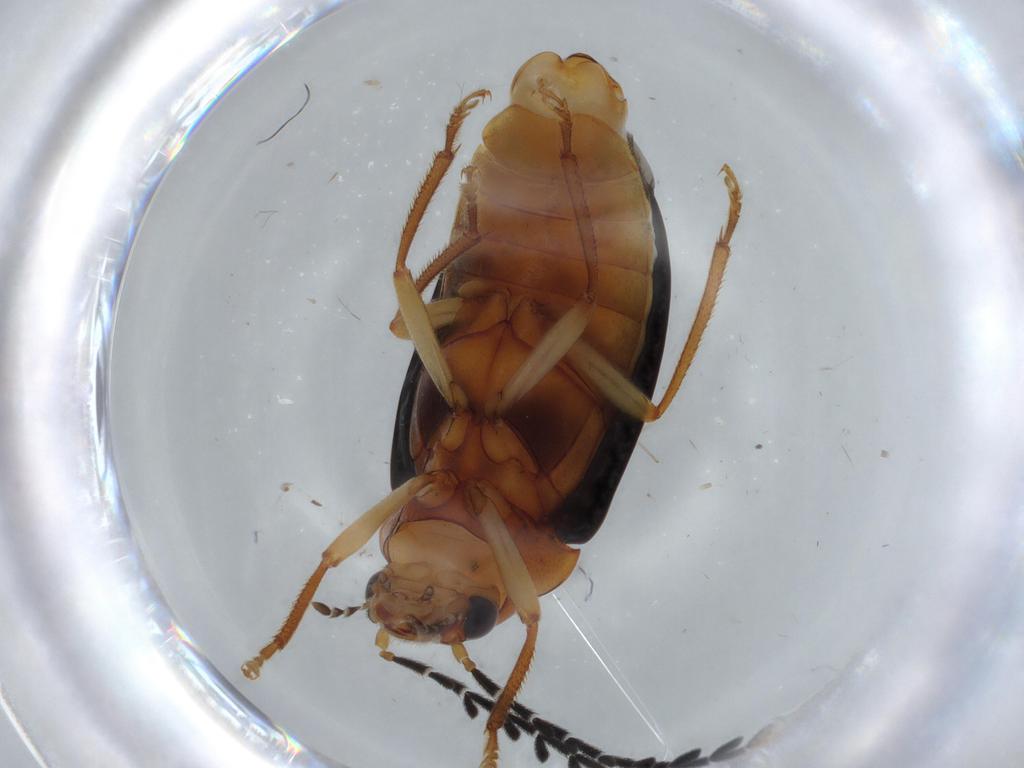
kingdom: Animalia
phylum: Arthropoda
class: Insecta
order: Coleoptera
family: Ptilodactylidae
